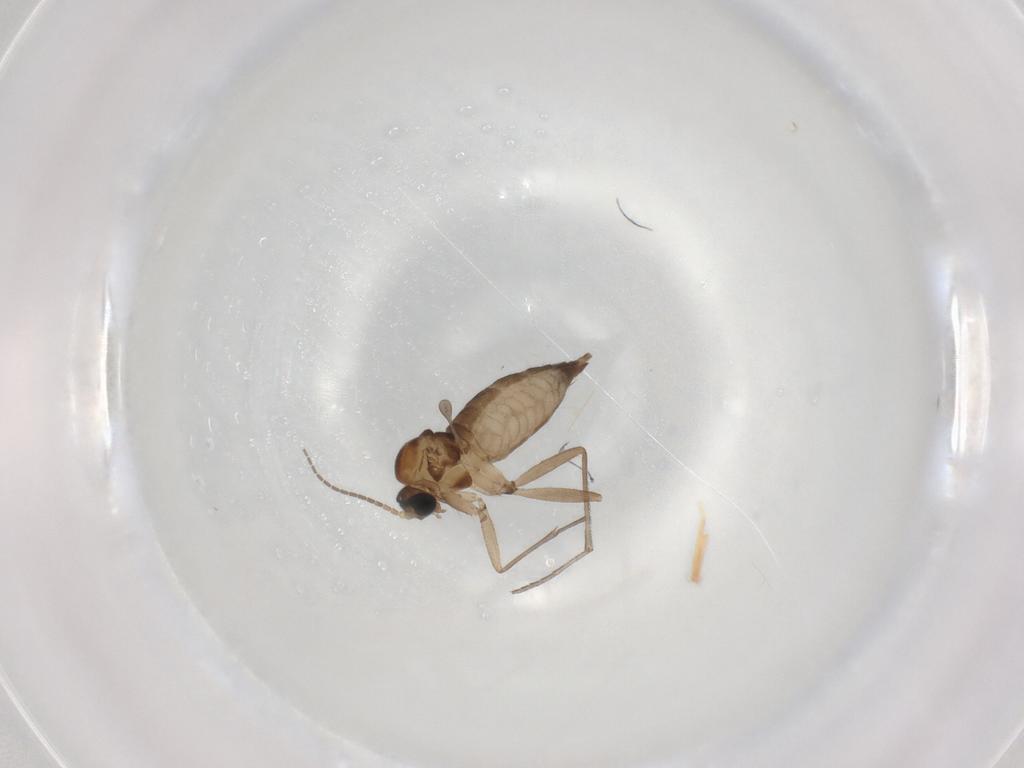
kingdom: Animalia
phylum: Arthropoda
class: Insecta
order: Diptera
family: Sciaridae
